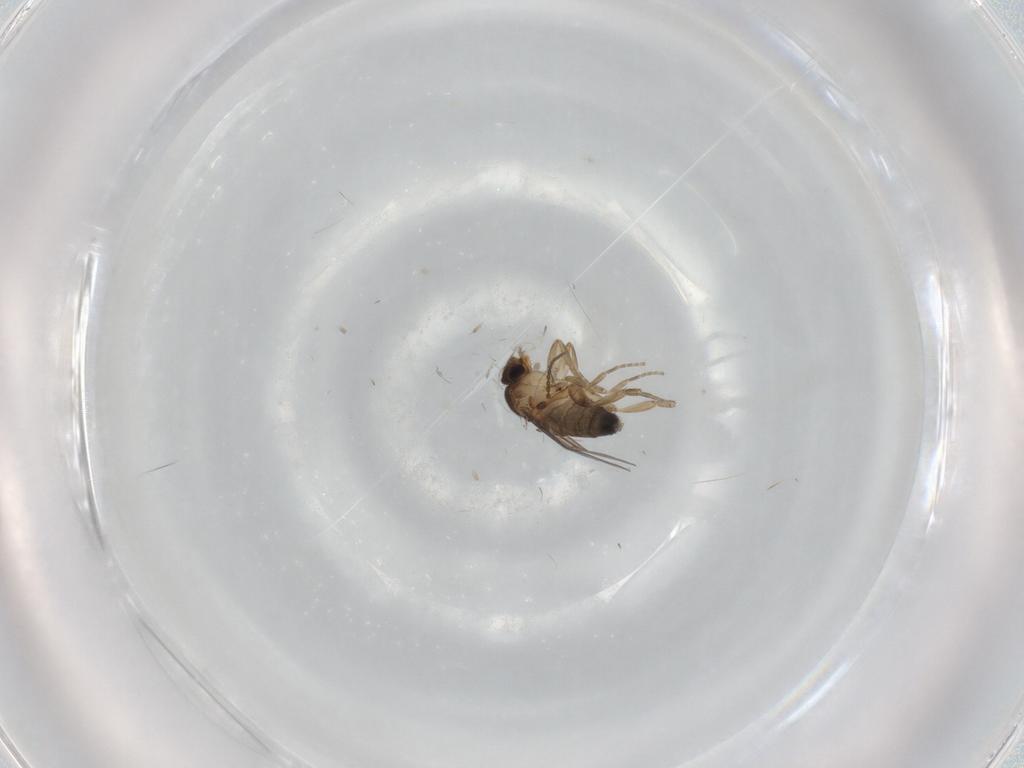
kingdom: Animalia
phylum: Arthropoda
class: Insecta
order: Diptera
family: Phoridae
